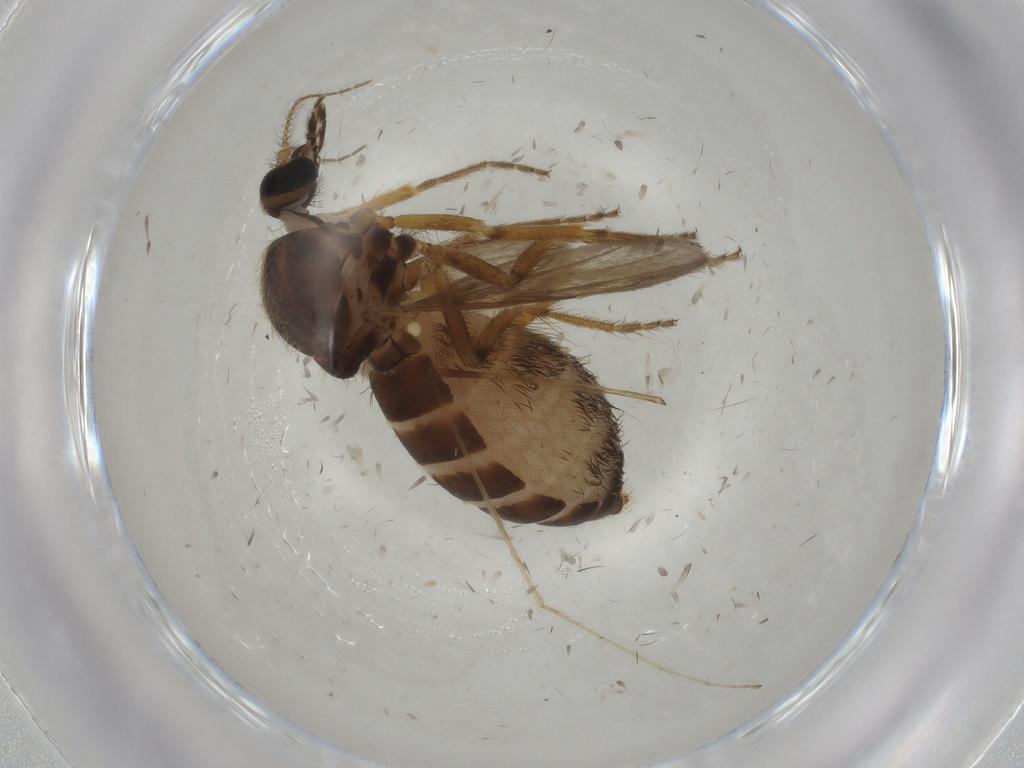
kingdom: Animalia
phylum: Arthropoda
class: Insecta
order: Diptera
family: Ceratopogonidae
